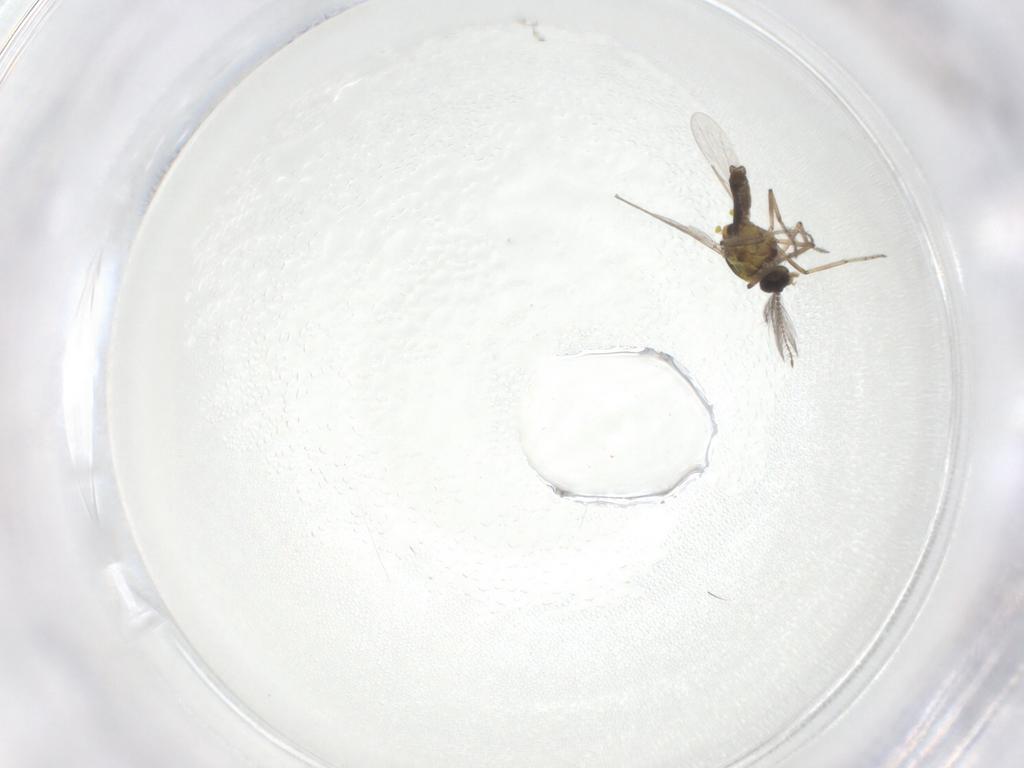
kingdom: Animalia
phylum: Arthropoda
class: Insecta
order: Diptera
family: Ceratopogonidae
